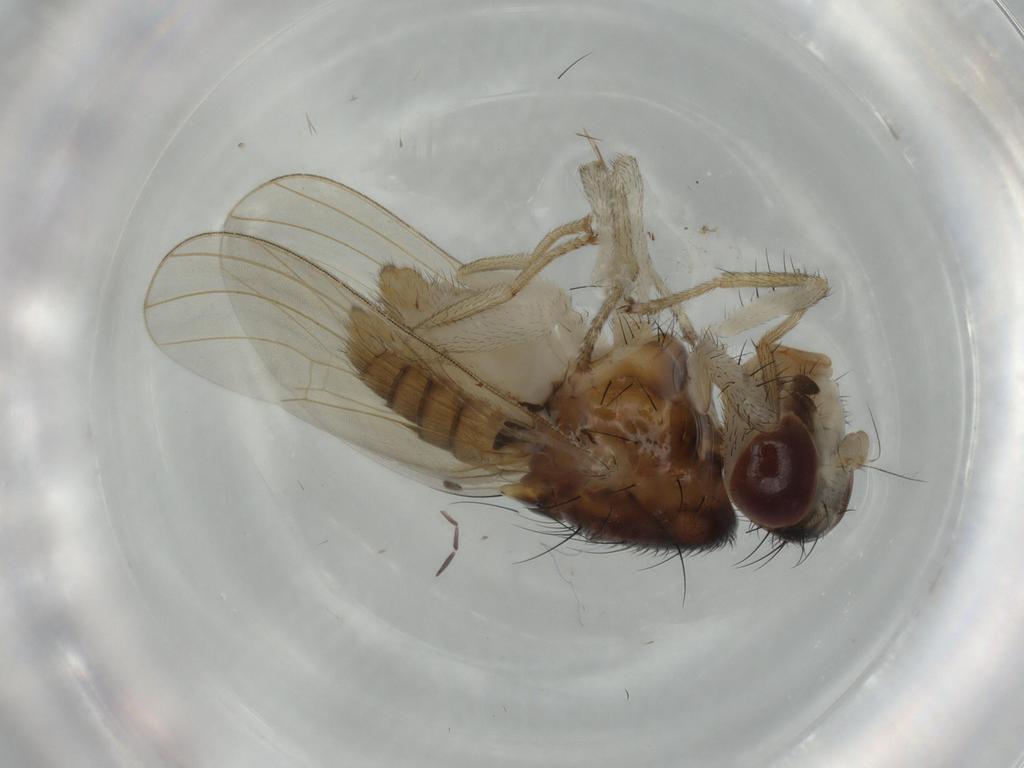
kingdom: Animalia
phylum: Arthropoda
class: Insecta
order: Diptera
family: Lauxaniidae
